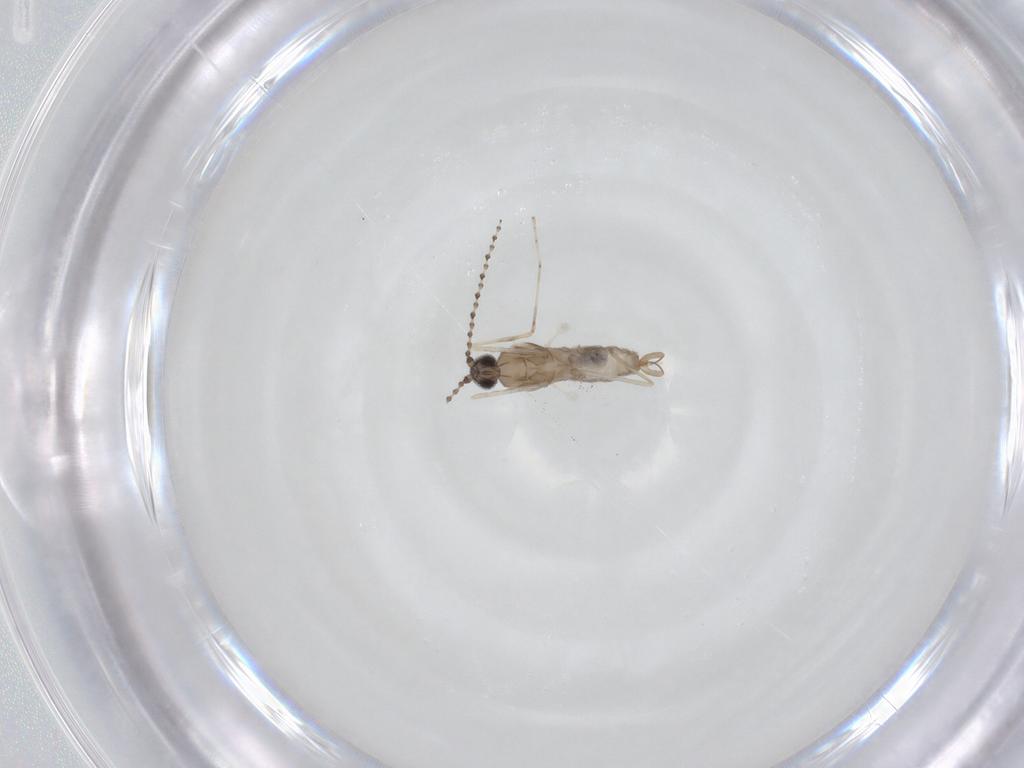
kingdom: Animalia
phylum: Arthropoda
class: Insecta
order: Diptera
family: Cecidomyiidae
